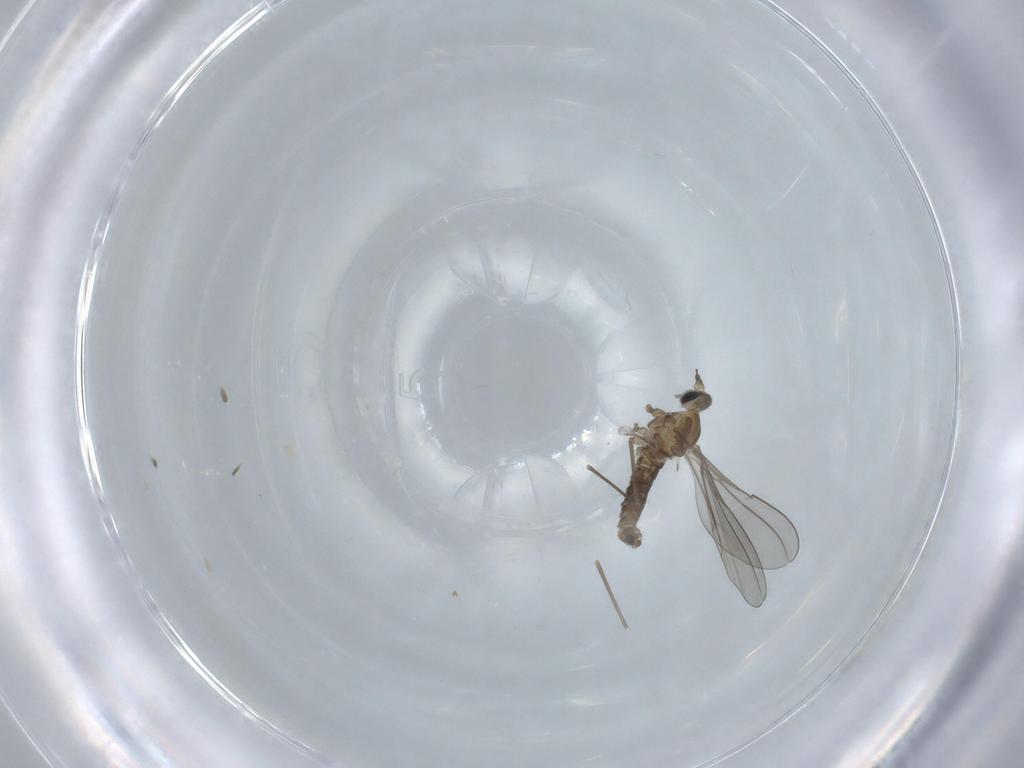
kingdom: Animalia
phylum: Arthropoda
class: Insecta
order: Diptera
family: Cecidomyiidae
